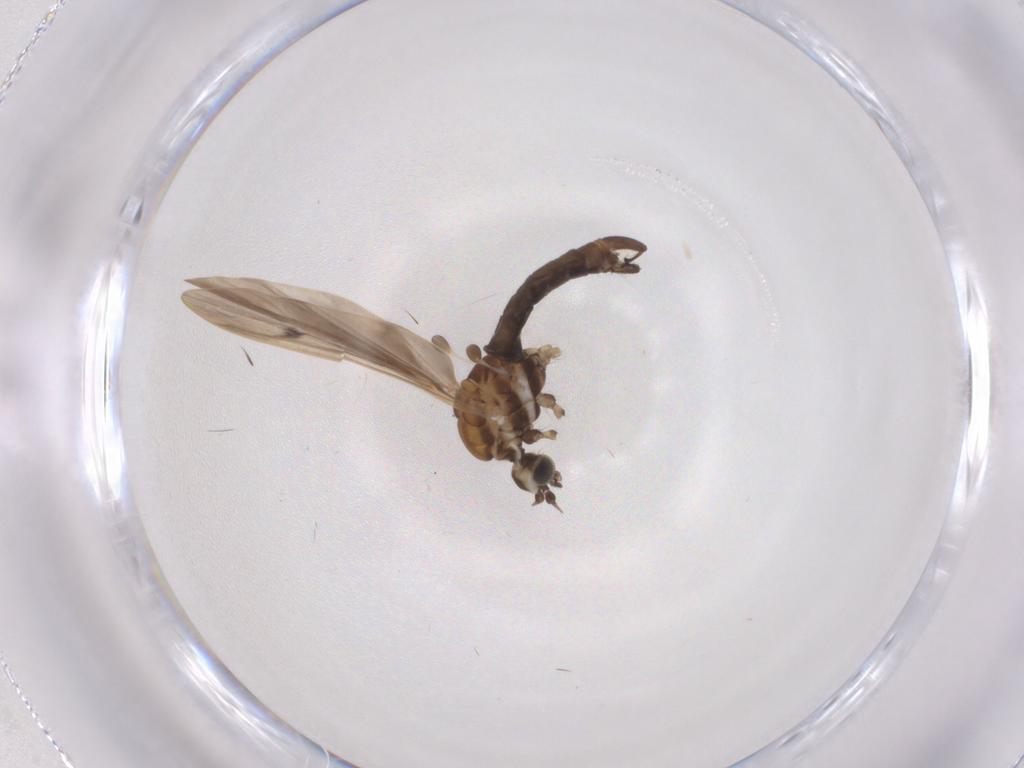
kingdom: Animalia
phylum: Arthropoda
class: Insecta
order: Diptera
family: Limoniidae
